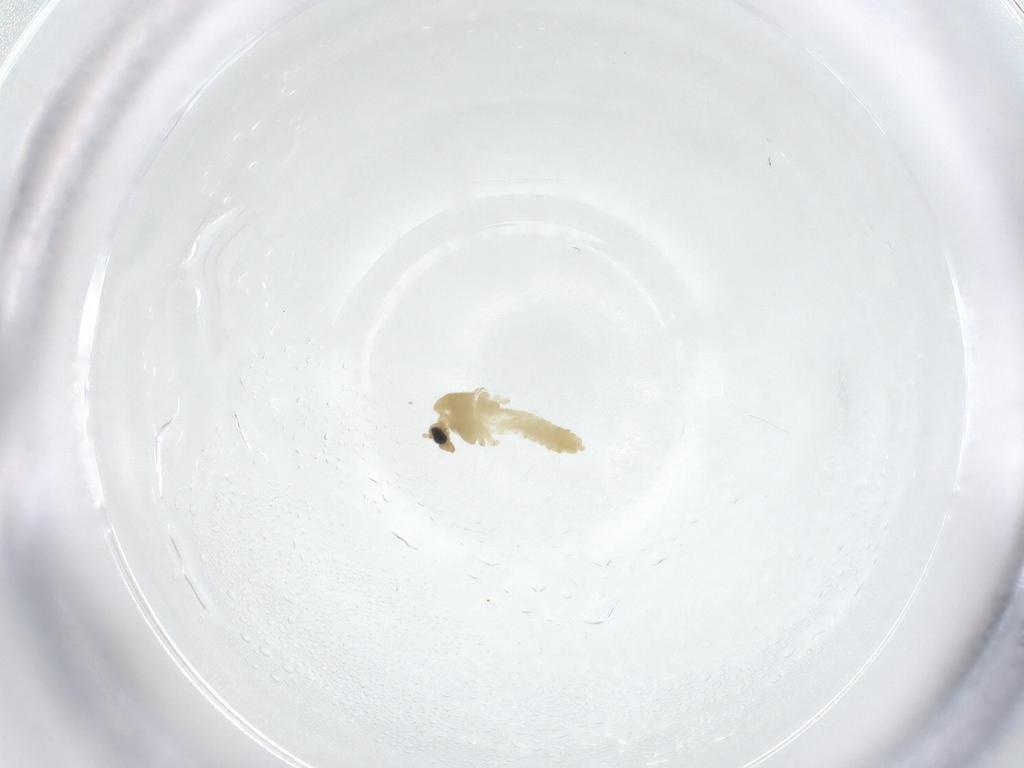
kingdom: Animalia
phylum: Arthropoda
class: Insecta
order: Diptera
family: Chironomidae
